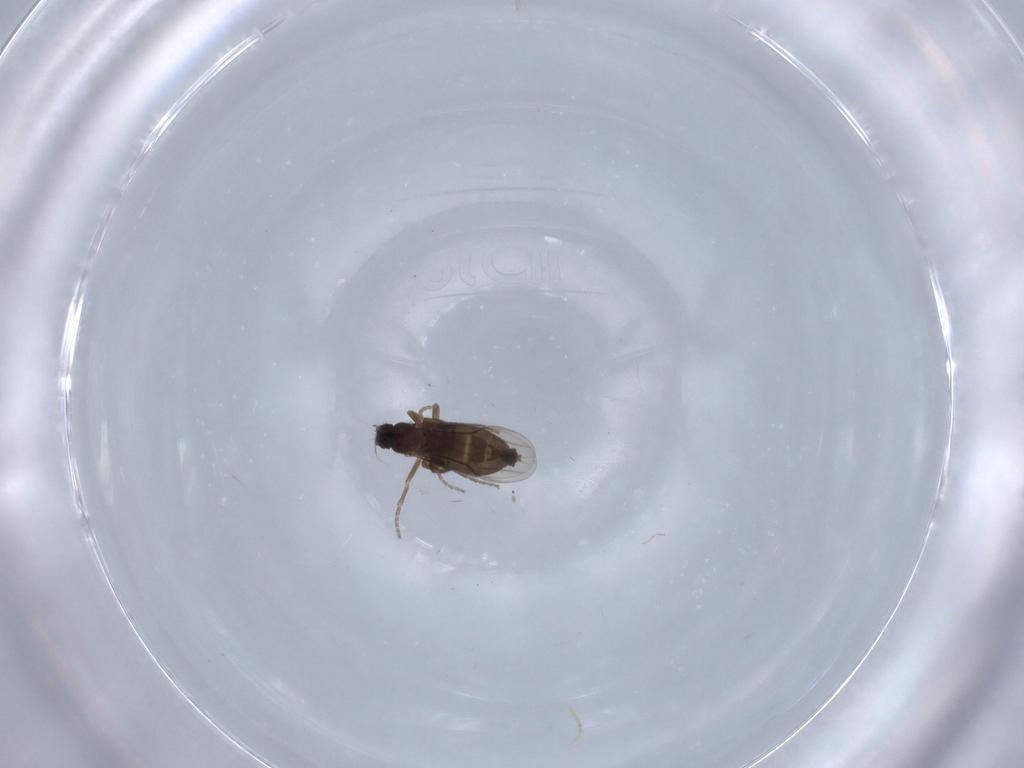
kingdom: Animalia
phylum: Arthropoda
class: Insecta
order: Diptera
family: Phoridae
